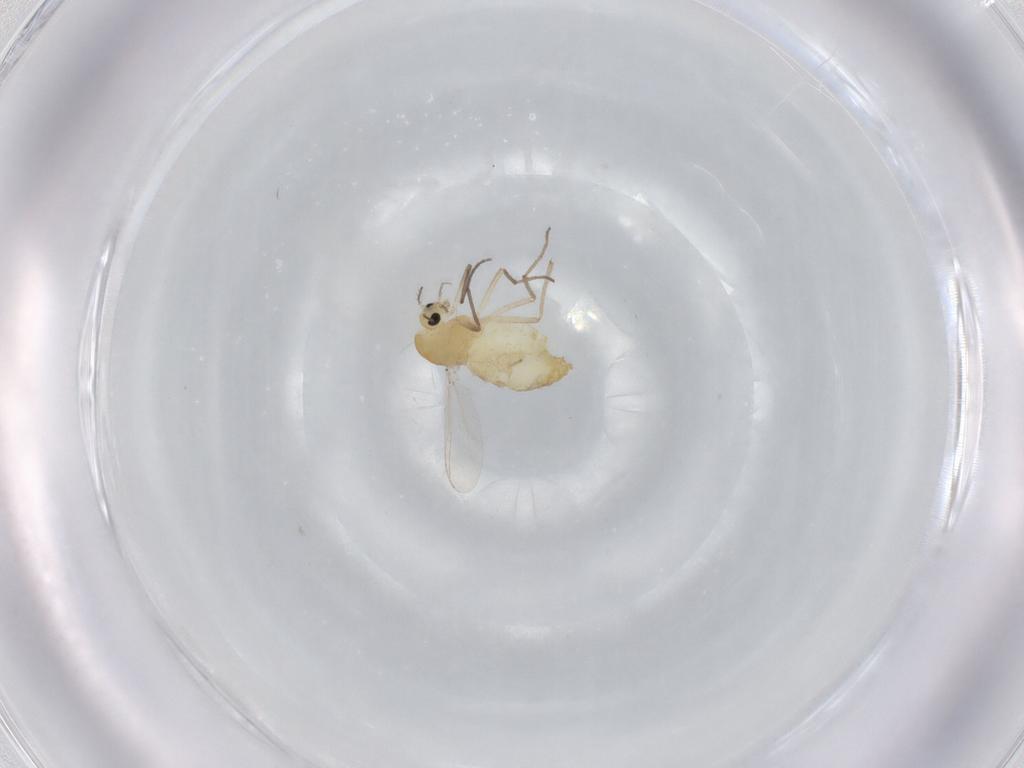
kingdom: Animalia
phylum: Arthropoda
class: Insecta
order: Diptera
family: Chironomidae
